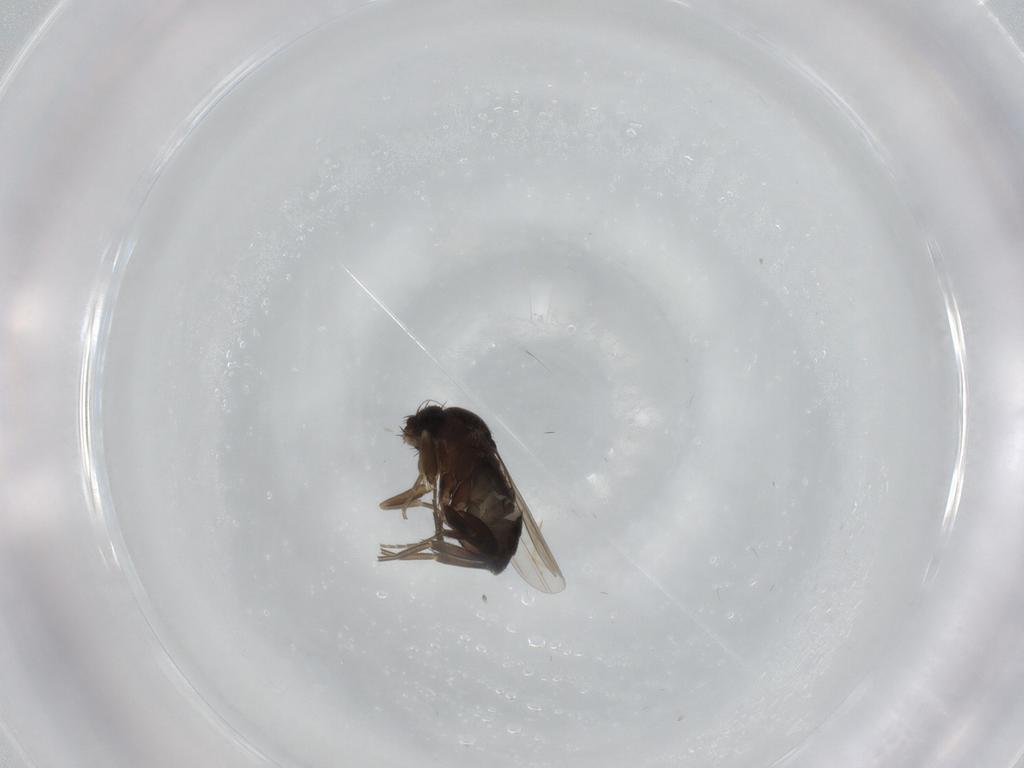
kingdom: Animalia
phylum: Arthropoda
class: Insecta
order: Diptera
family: Phoridae
